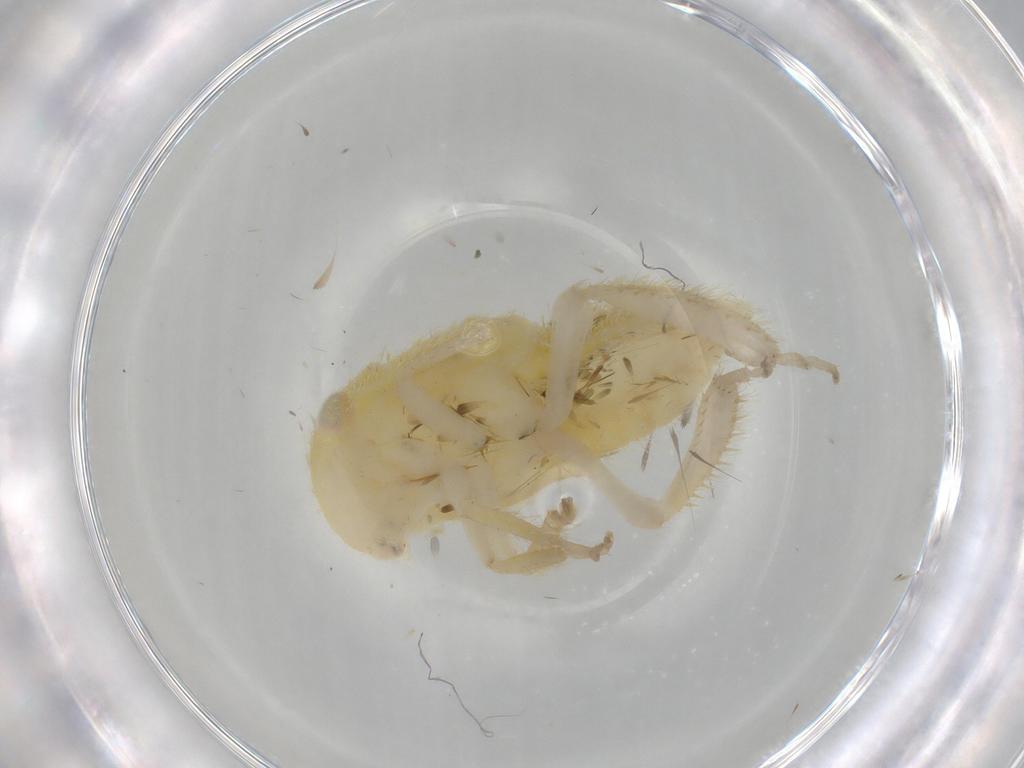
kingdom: Animalia
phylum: Arthropoda
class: Insecta
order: Hemiptera
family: Cicadellidae
